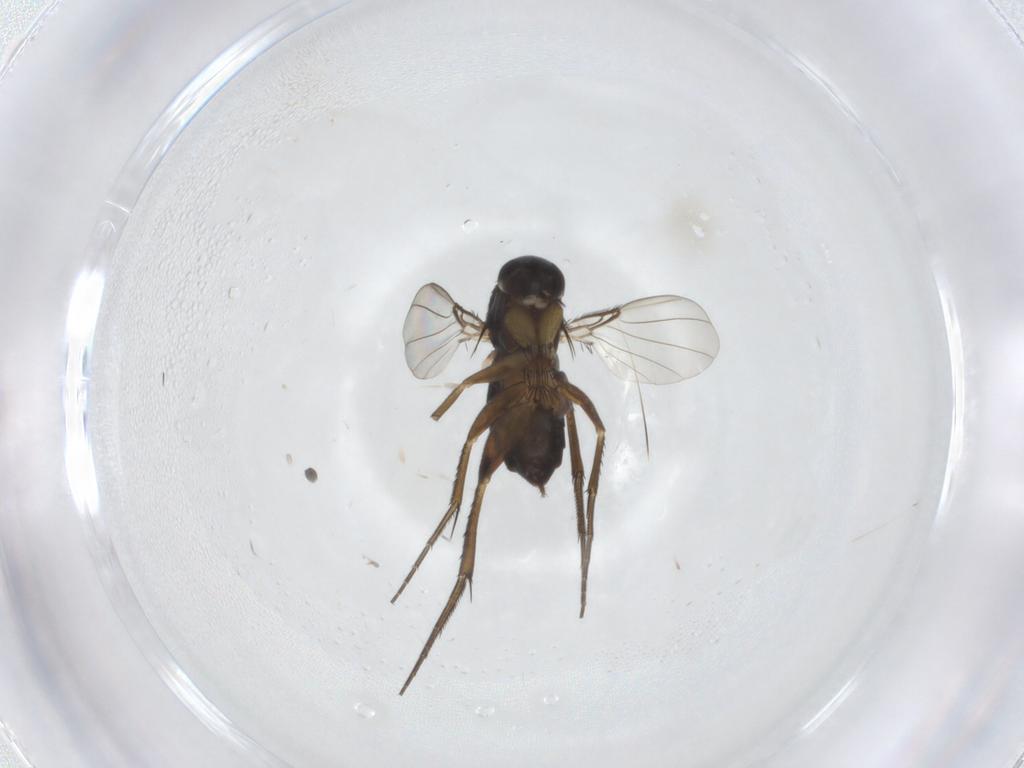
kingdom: Animalia
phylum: Arthropoda
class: Insecta
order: Diptera
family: Phoridae
